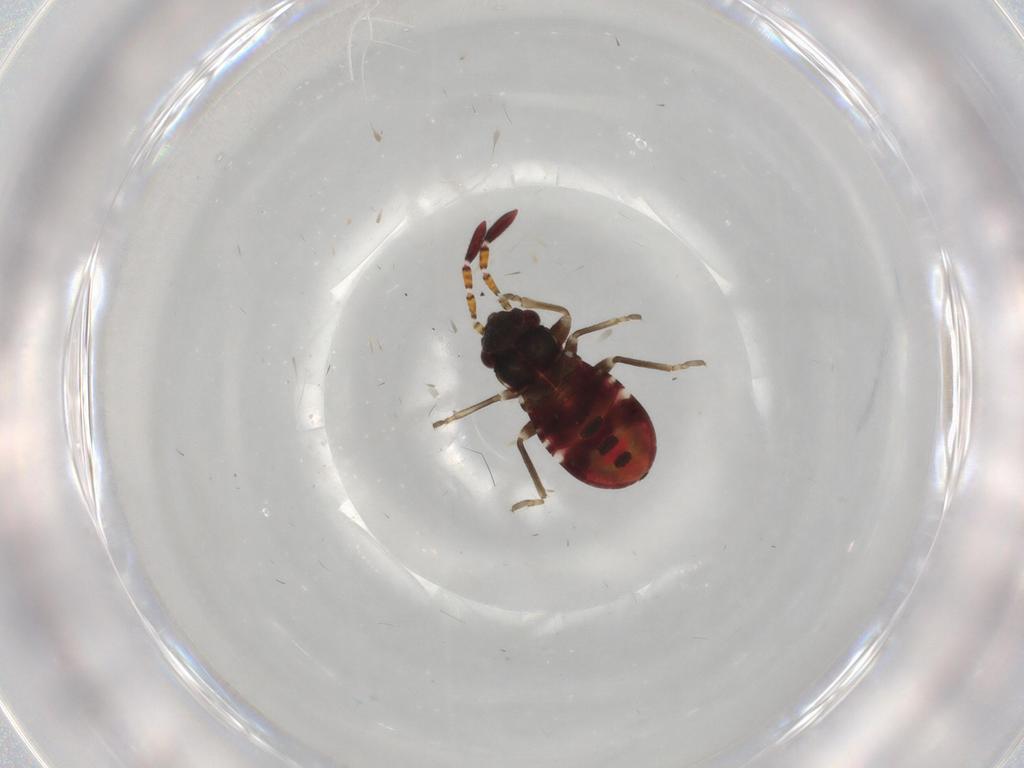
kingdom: Animalia
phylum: Arthropoda
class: Insecta
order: Hemiptera
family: Rhyparochromidae
